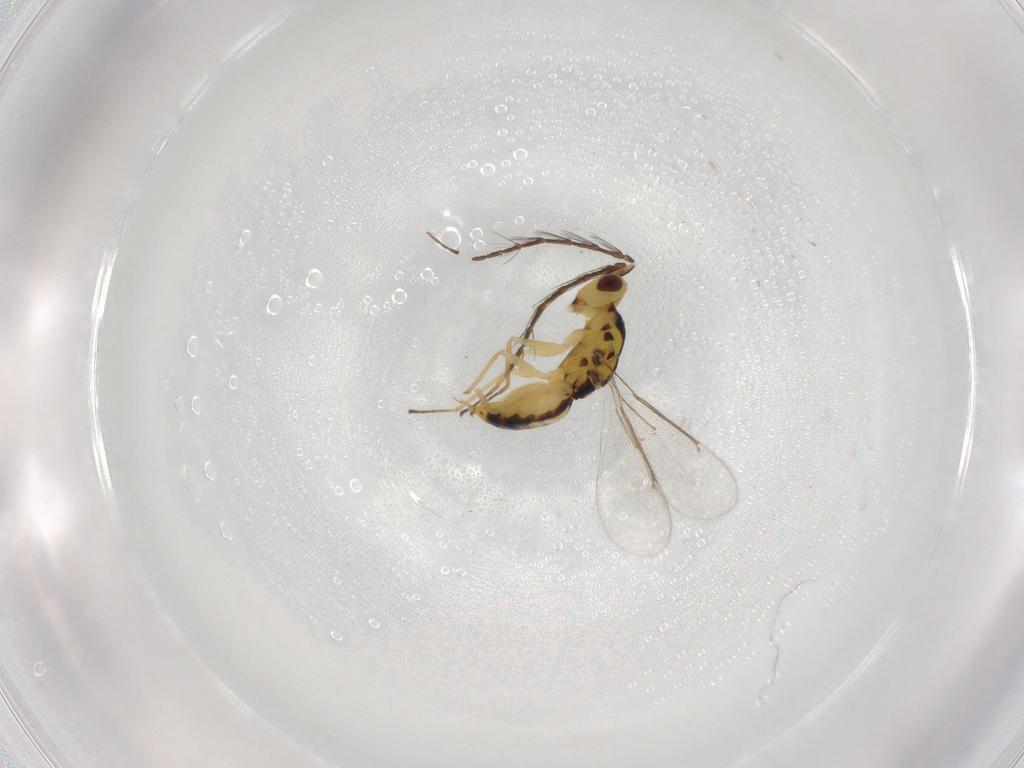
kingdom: Animalia
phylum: Arthropoda
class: Insecta
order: Hymenoptera
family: Eulophidae
